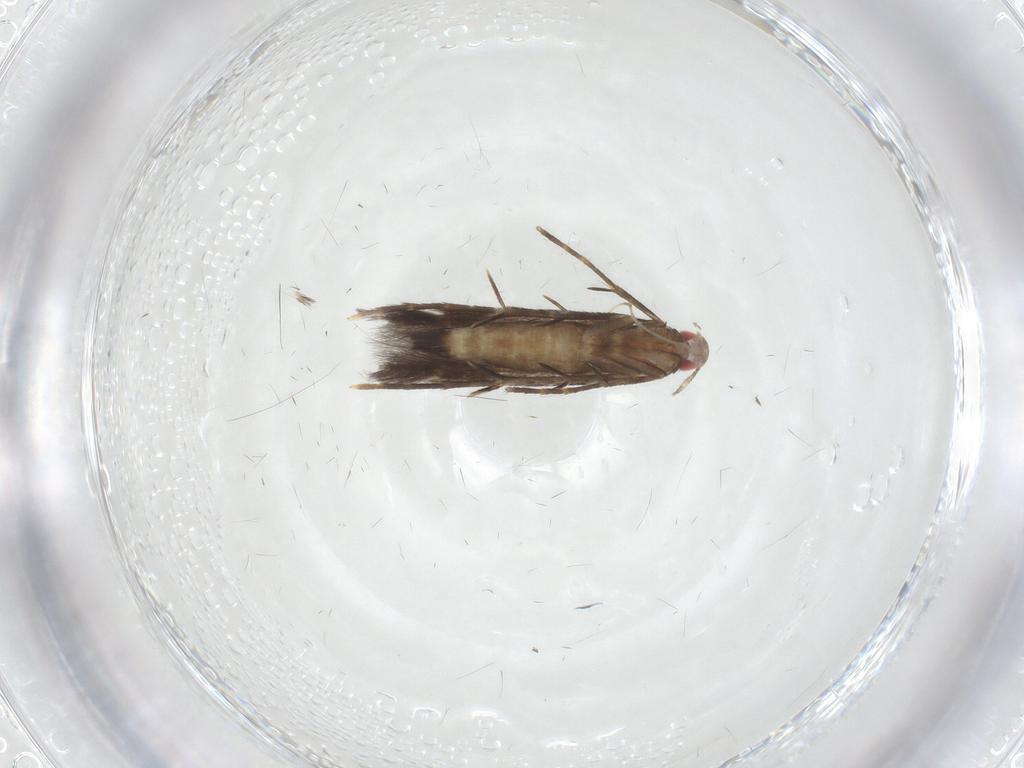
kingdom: Animalia
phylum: Arthropoda
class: Insecta
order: Lepidoptera
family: Cosmopterigidae
